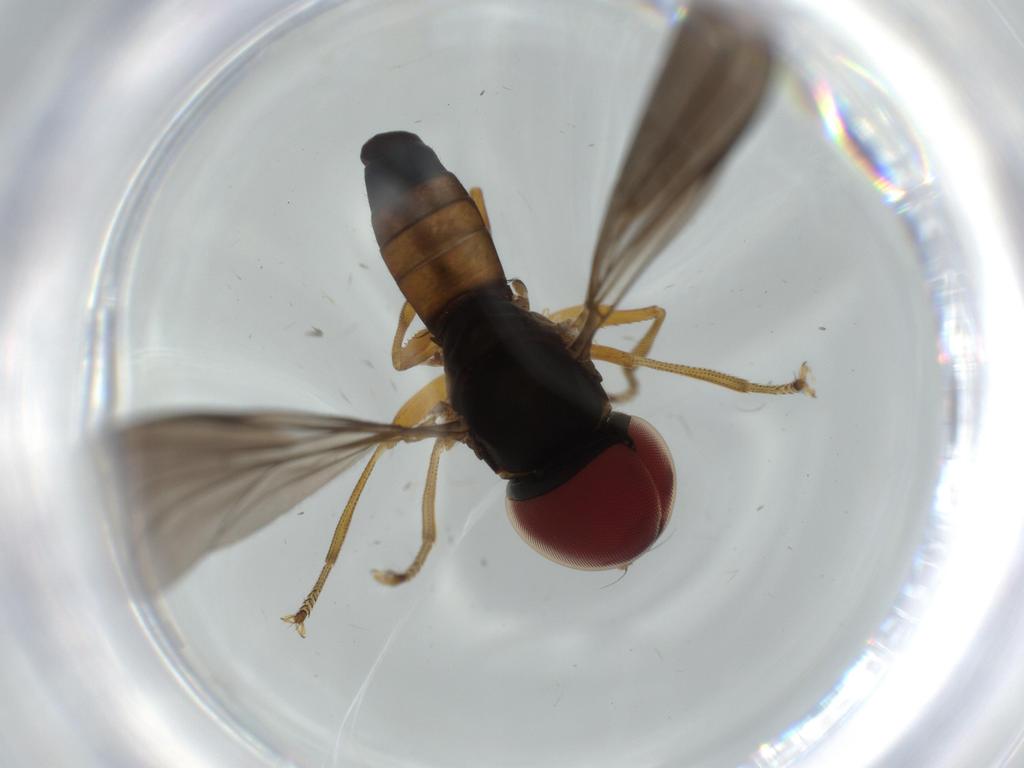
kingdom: Animalia
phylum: Arthropoda
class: Insecta
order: Diptera
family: Pipunculidae
